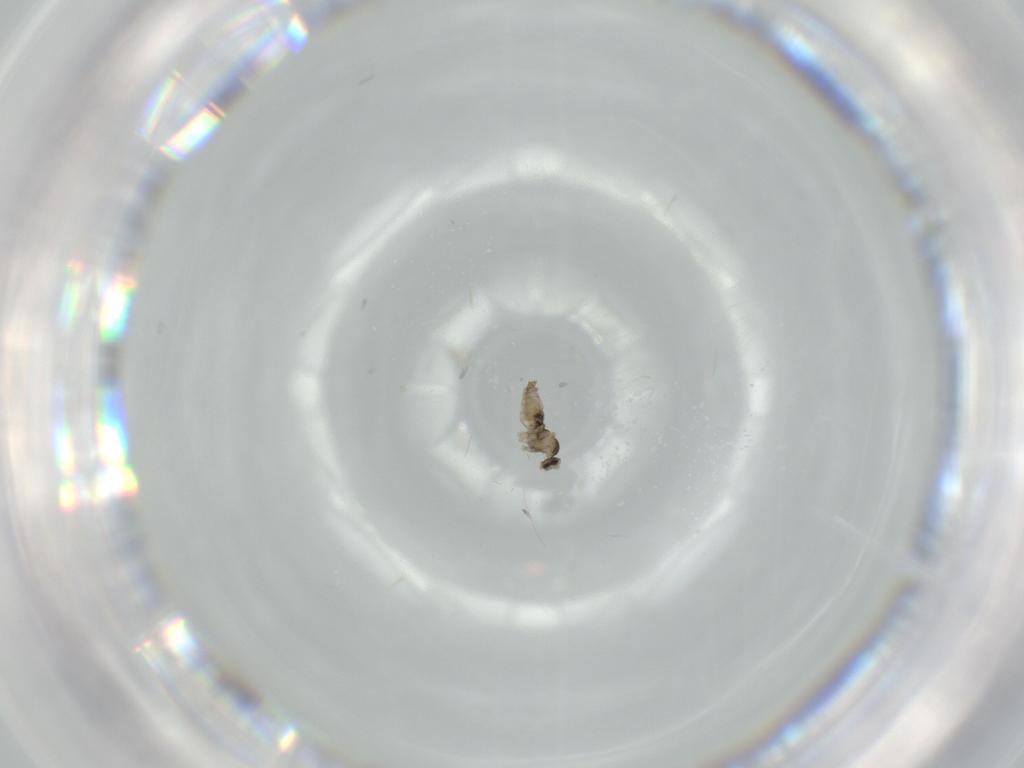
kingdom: Animalia
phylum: Arthropoda
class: Insecta
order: Diptera
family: Cecidomyiidae
